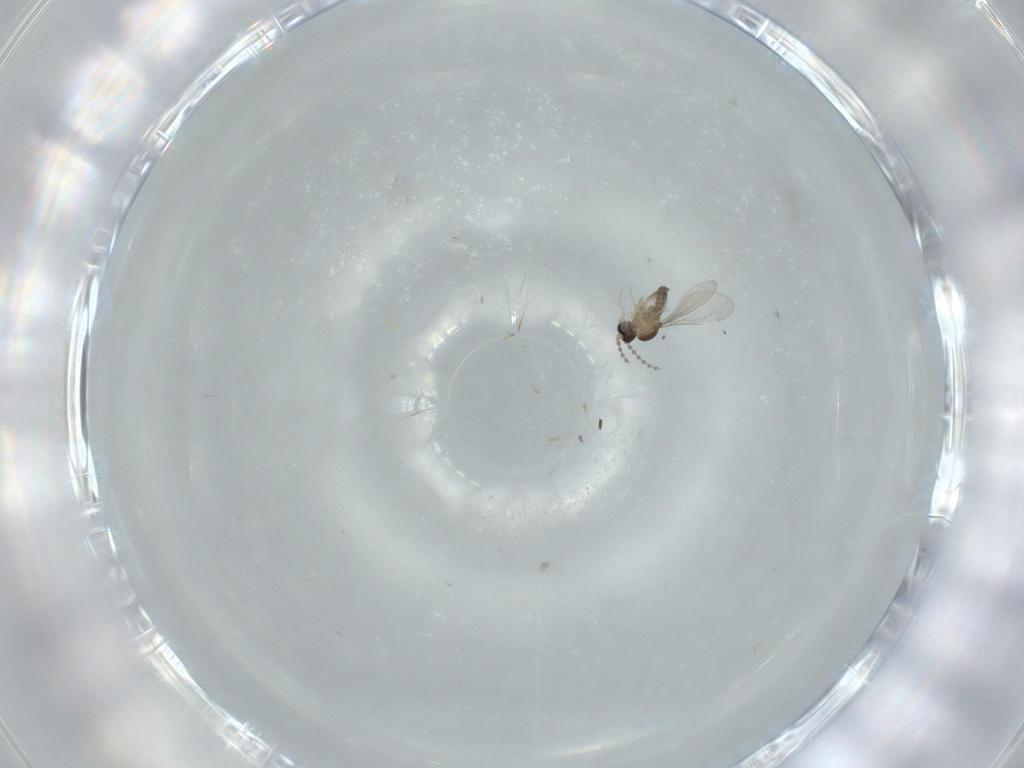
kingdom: Animalia
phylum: Arthropoda
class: Insecta
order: Diptera
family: Cecidomyiidae
